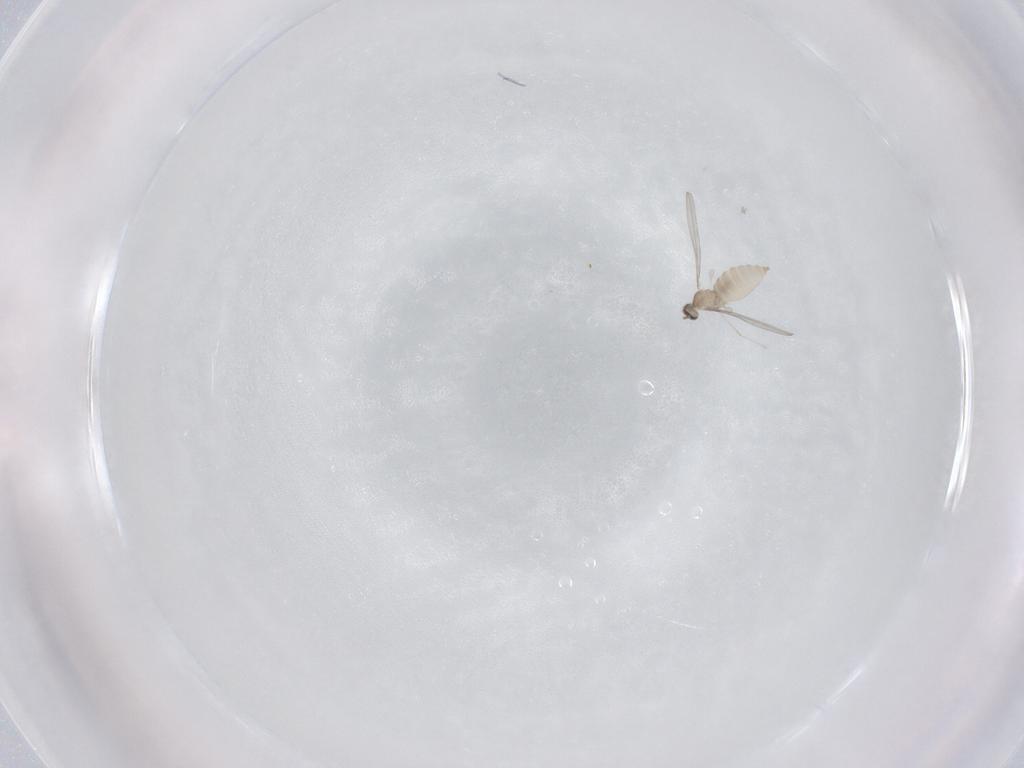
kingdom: Animalia
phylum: Arthropoda
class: Insecta
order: Diptera
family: Cecidomyiidae
